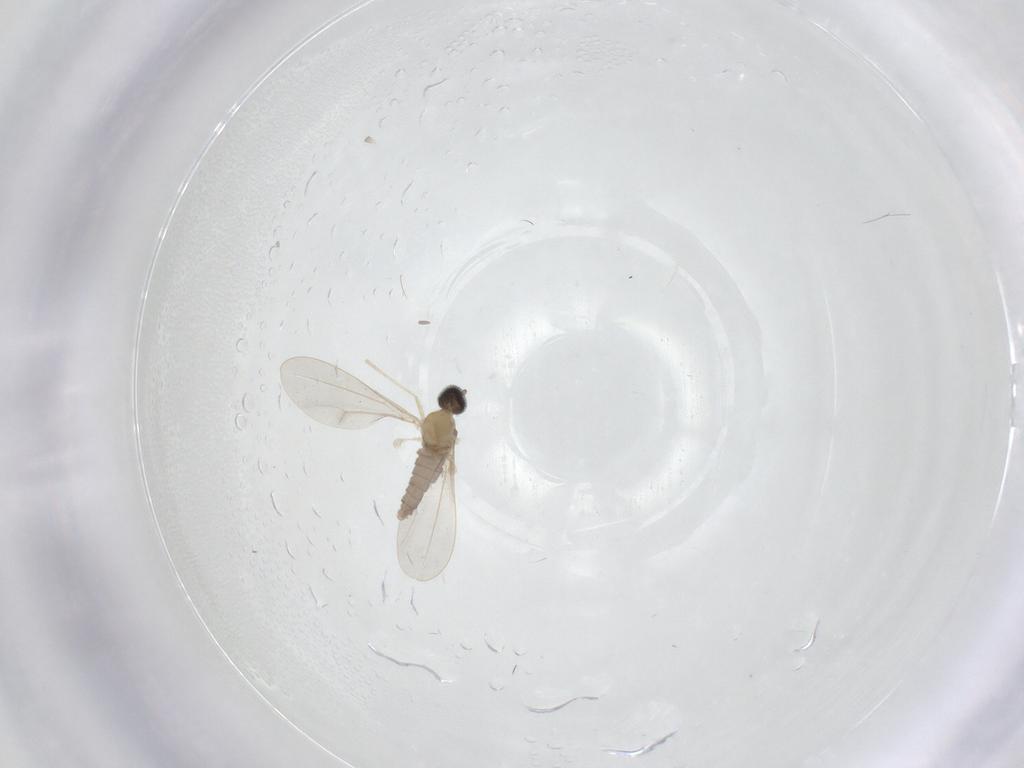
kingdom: Animalia
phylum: Arthropoda
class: Insecta
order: Diptera
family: Cecidomyiidae
